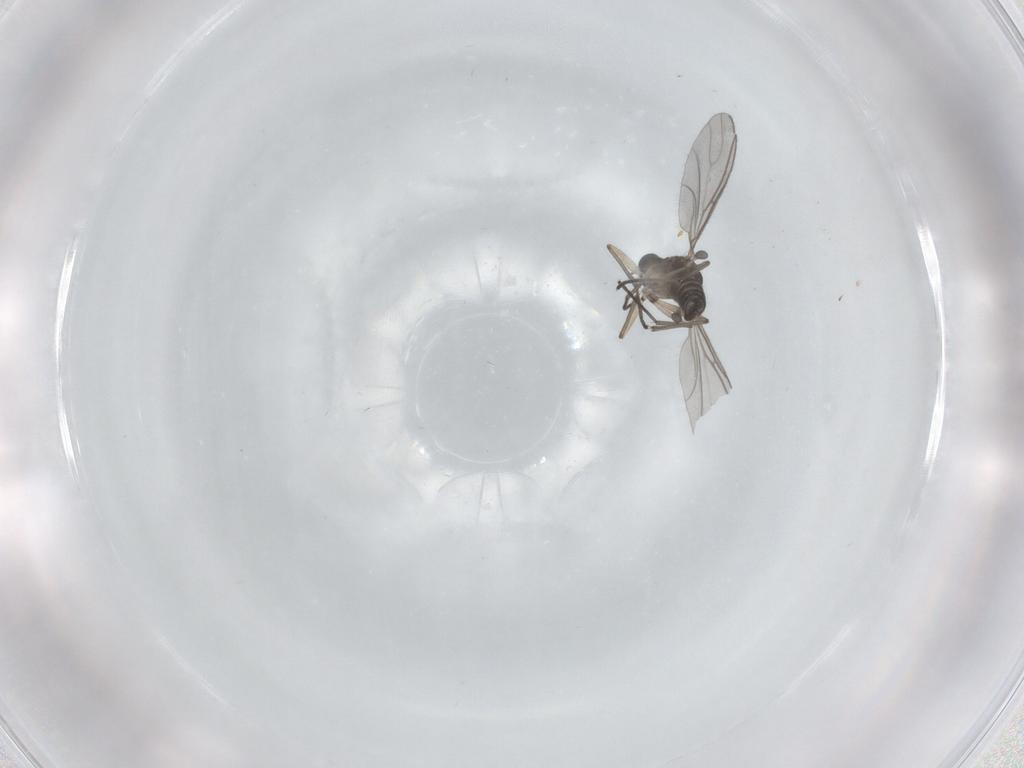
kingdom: Animalia
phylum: Arthropoda
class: Insecta
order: Diptera
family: Sciaridae
